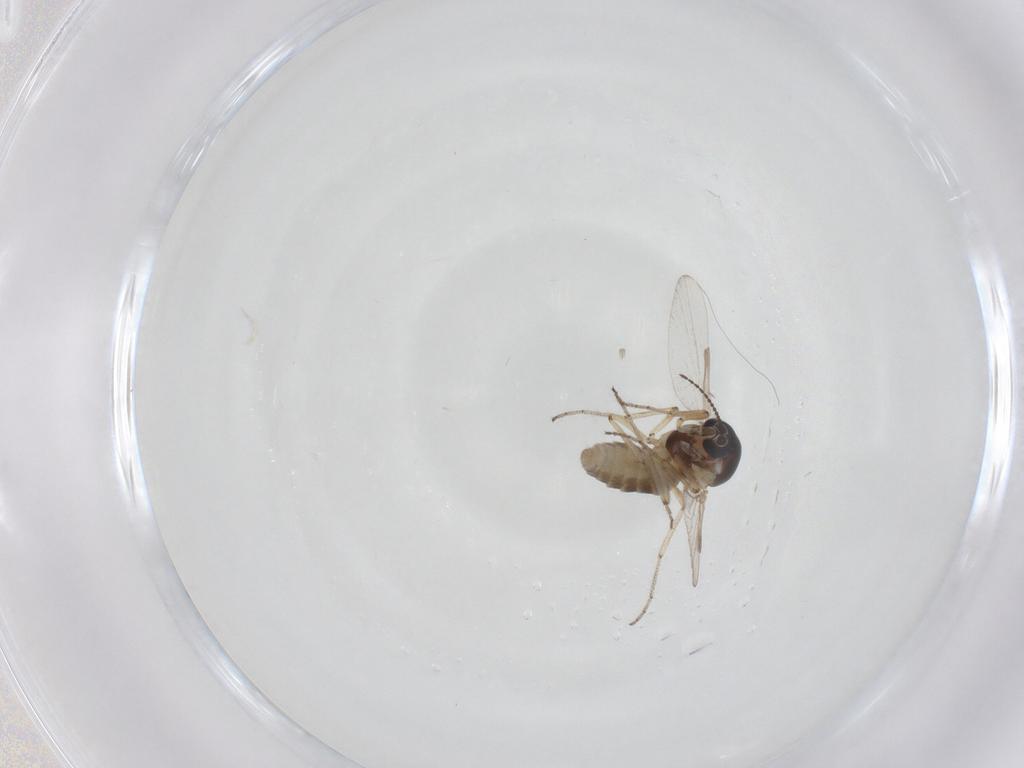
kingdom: Animalia
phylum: Arthropoda
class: Insecta
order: Diptera
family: Ceratopogonidae
